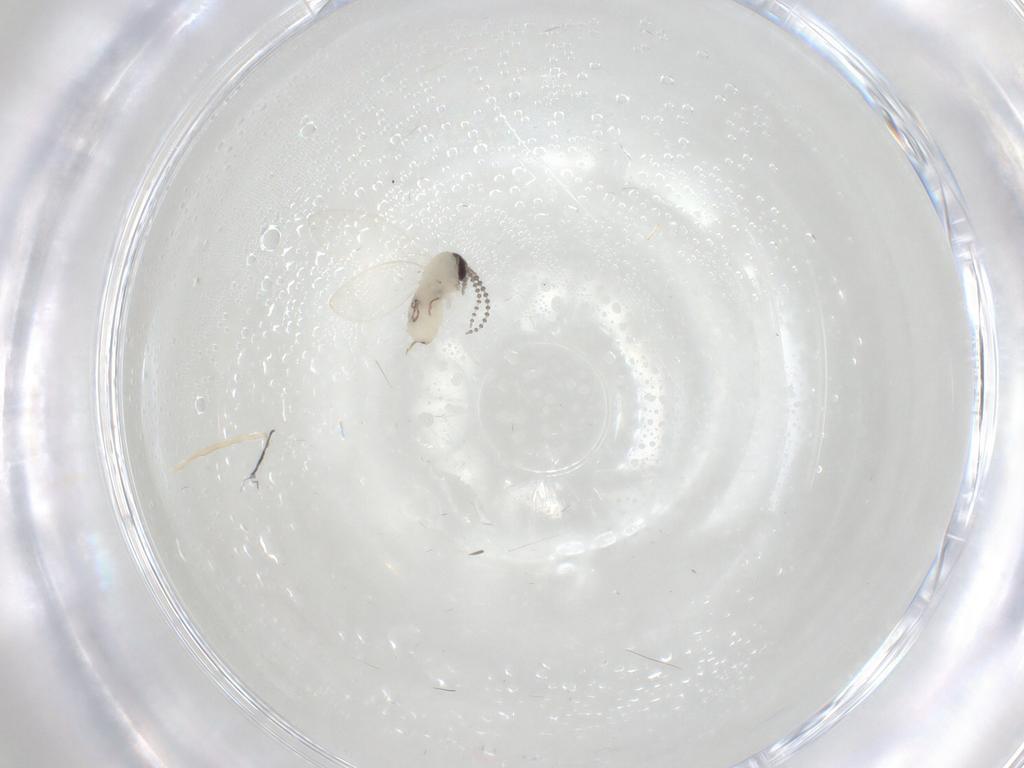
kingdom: Animalia
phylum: Arthropoda
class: Insecta
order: Diptera
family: Psychodidae
